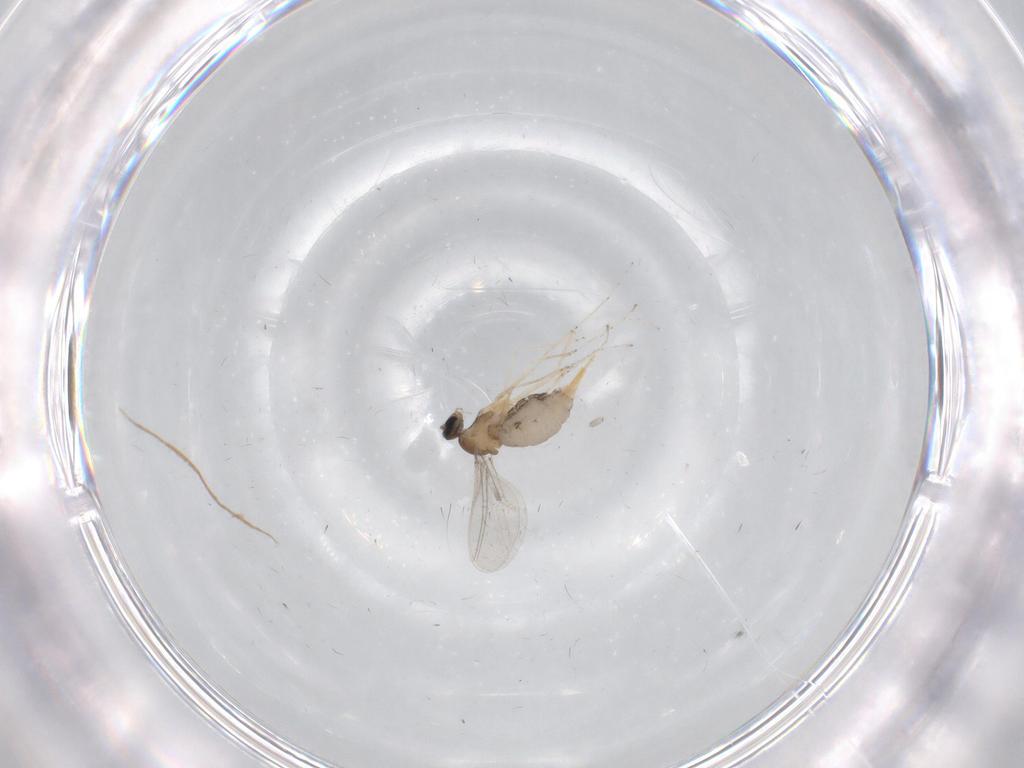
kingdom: Animalia
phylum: Arthropoda
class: Insecta
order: Diptera
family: Cecidomyiidae
